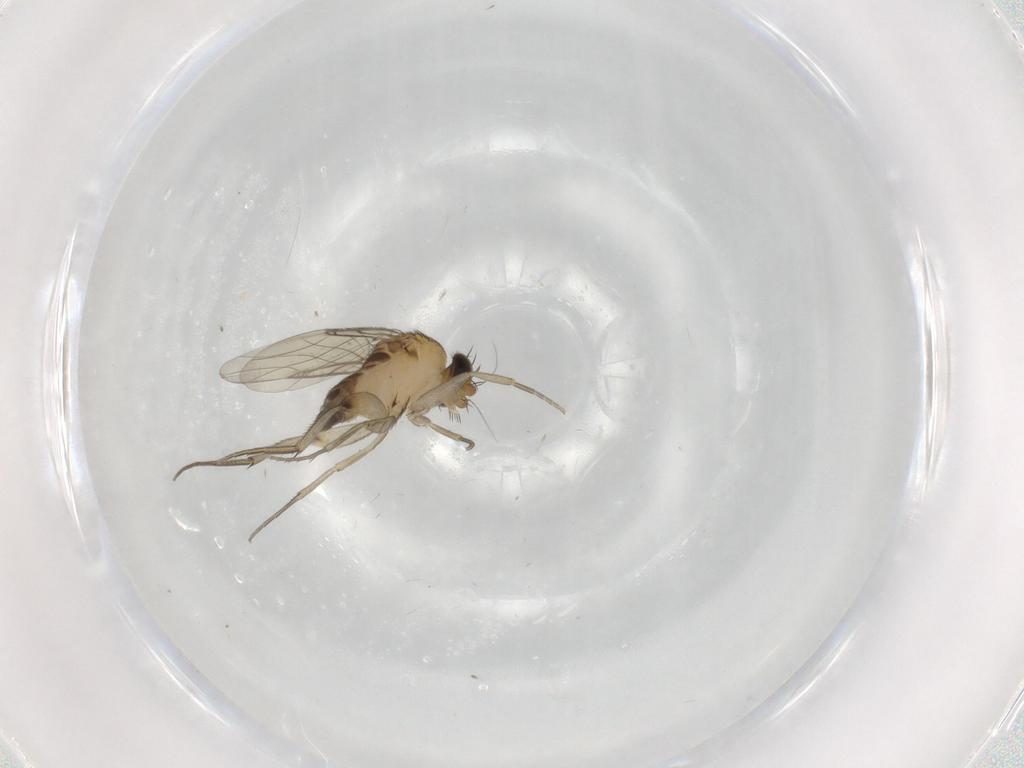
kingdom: Animalia
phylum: Arthropoda
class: Insecta
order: Diptera
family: Phoridae
